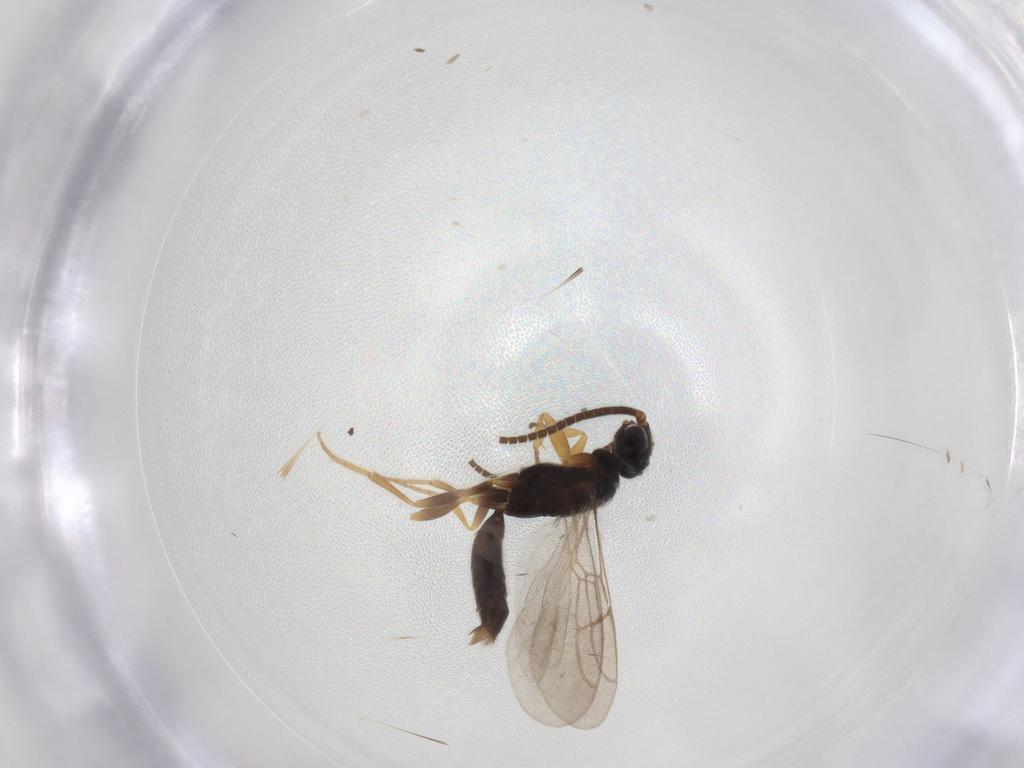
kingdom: Animalia
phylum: Arthropoda
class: Insecta
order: Hymenoptera
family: Sclerogibbidae
